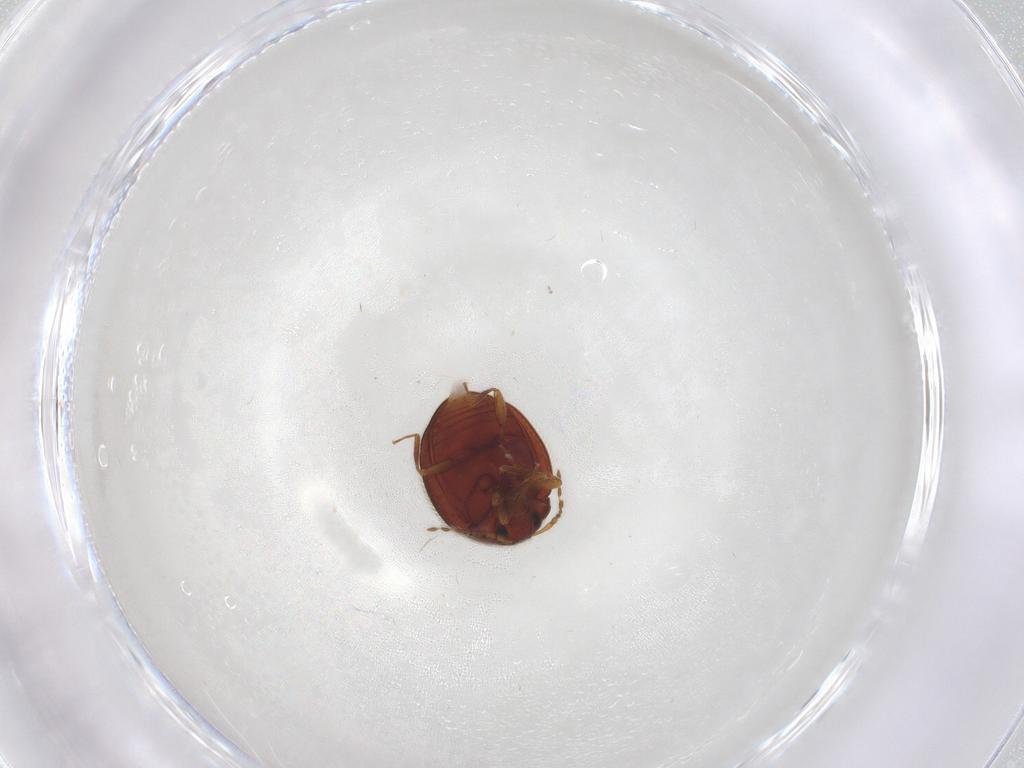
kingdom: Animalia
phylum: Arthropoda
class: Insecta
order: Coleoptera
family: Anamorphidae
